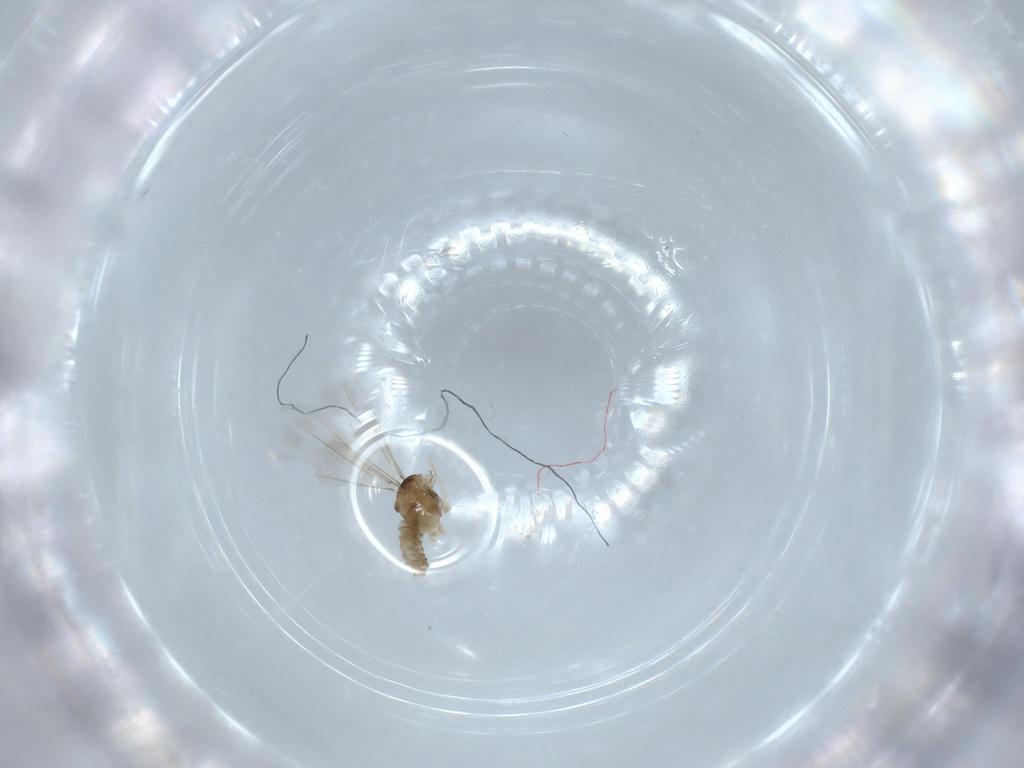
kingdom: Animalia
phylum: Arthropoda
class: Insecta
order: Diptera
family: Cecidomyiidae
